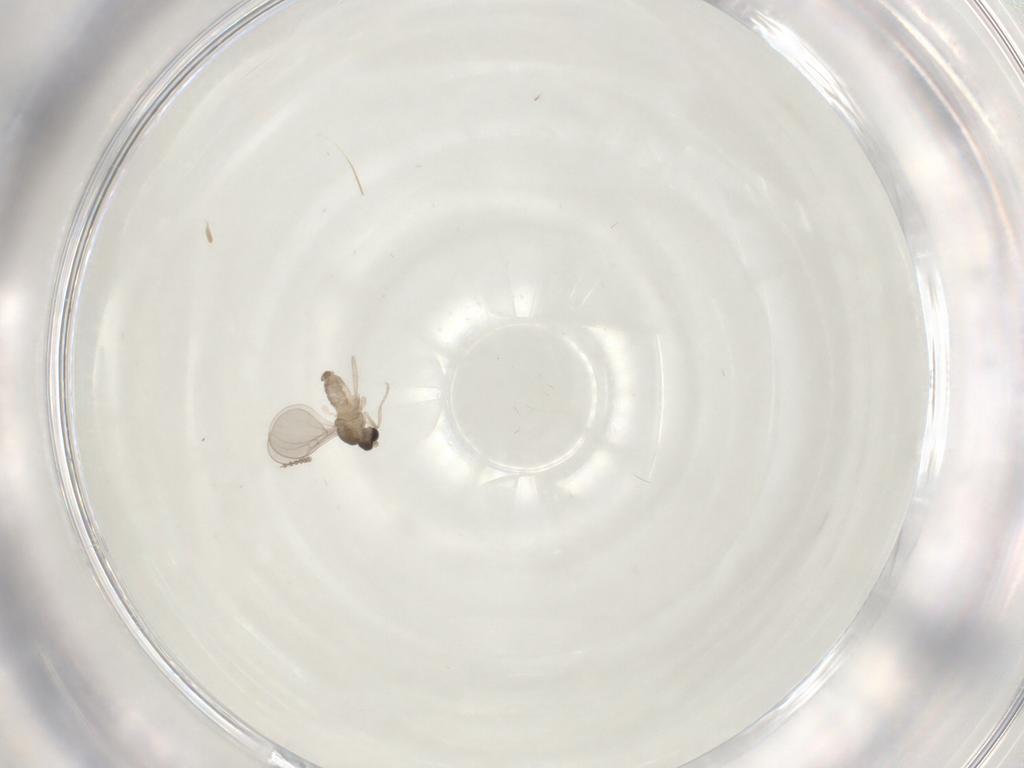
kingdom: Animalia
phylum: Arthropoda
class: Insecta
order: Diptera
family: Cecidomyiidae
